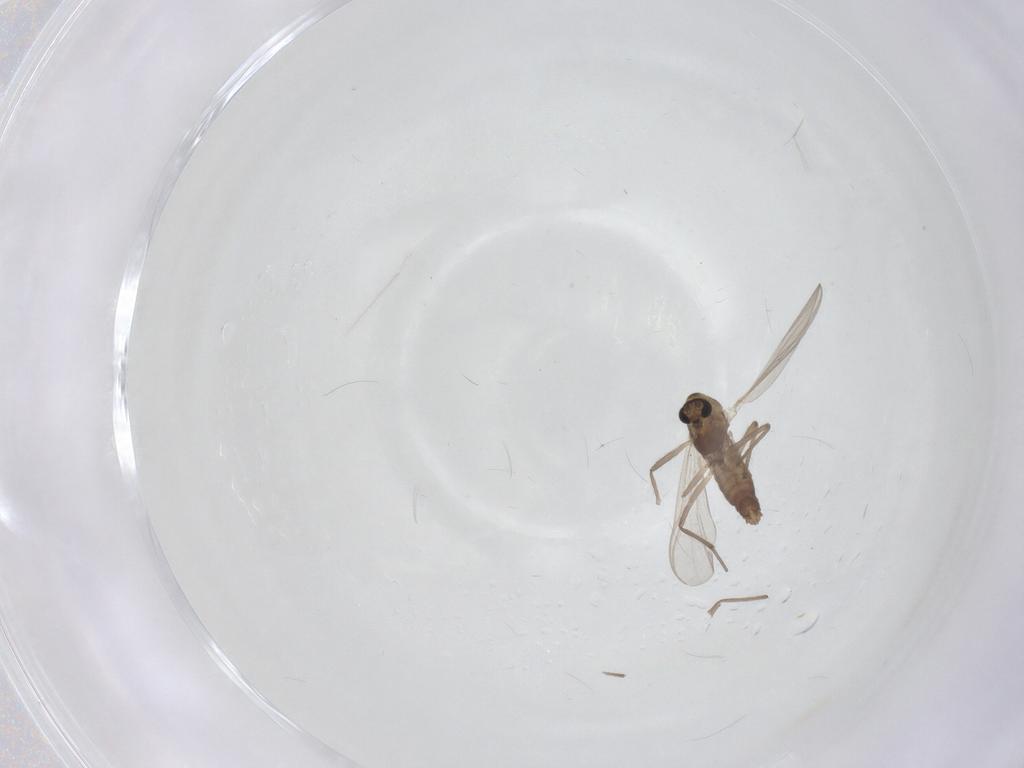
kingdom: Animalia
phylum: Arthropoda
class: Insecta
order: Diptera
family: Chironomidae
